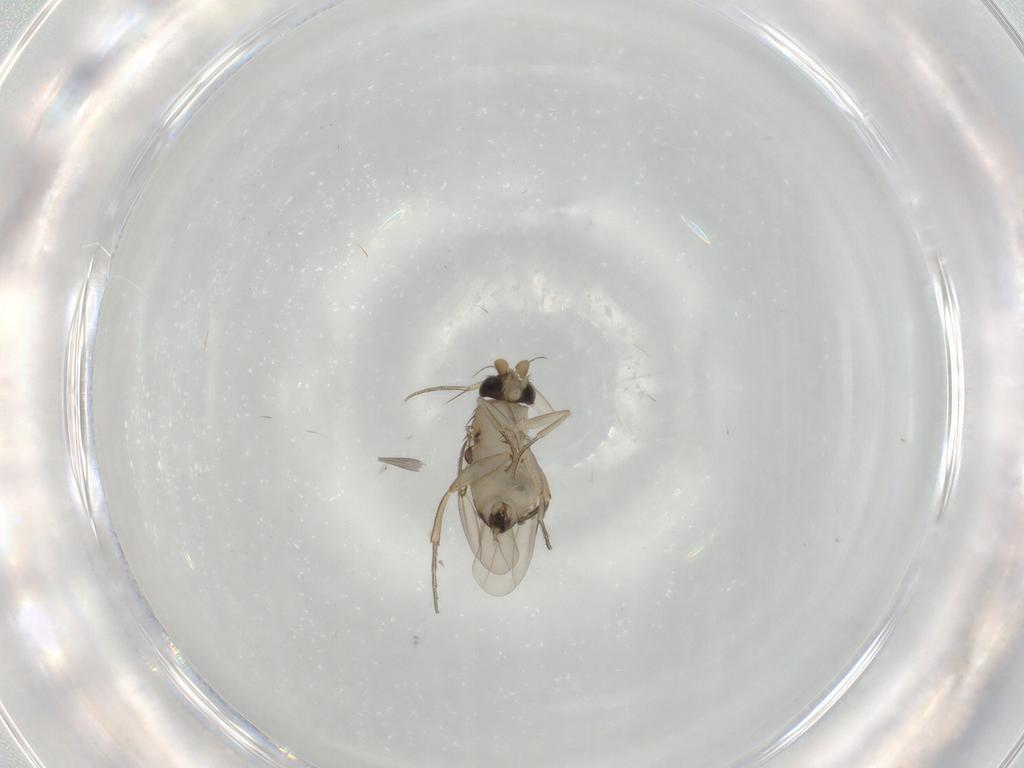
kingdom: Animalia
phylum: Arthropoda
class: Insecta
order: Diptera
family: Phoridae
